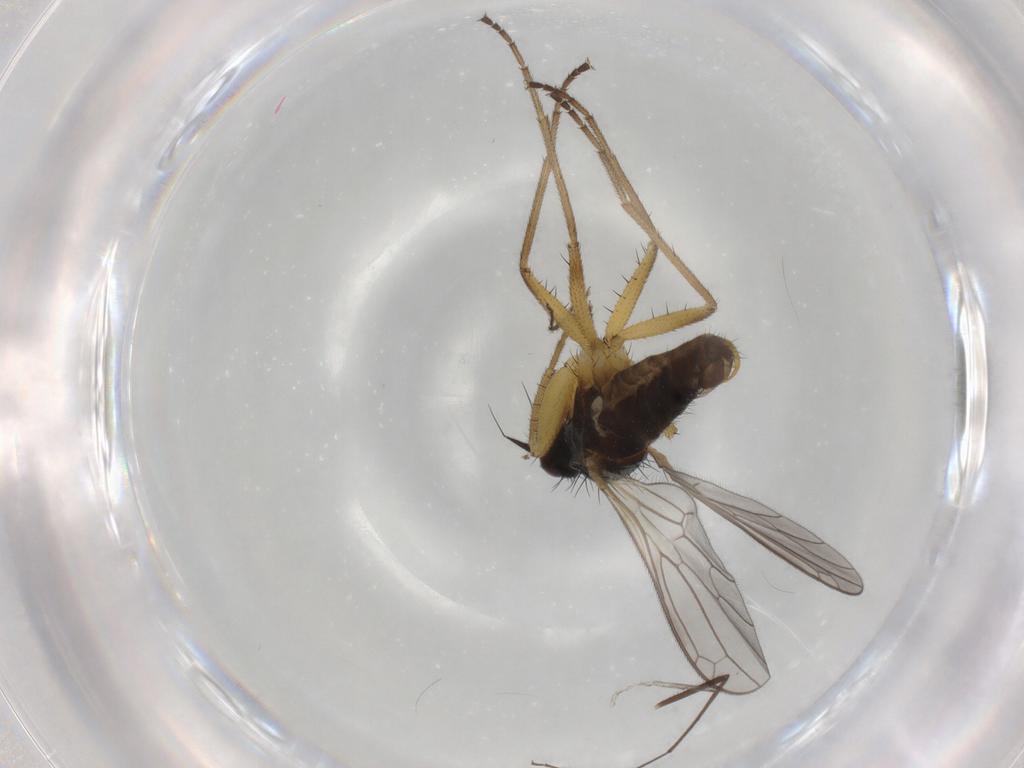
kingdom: Animalia
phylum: Arthropoda
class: Insecta
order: Diptera
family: Empididae
